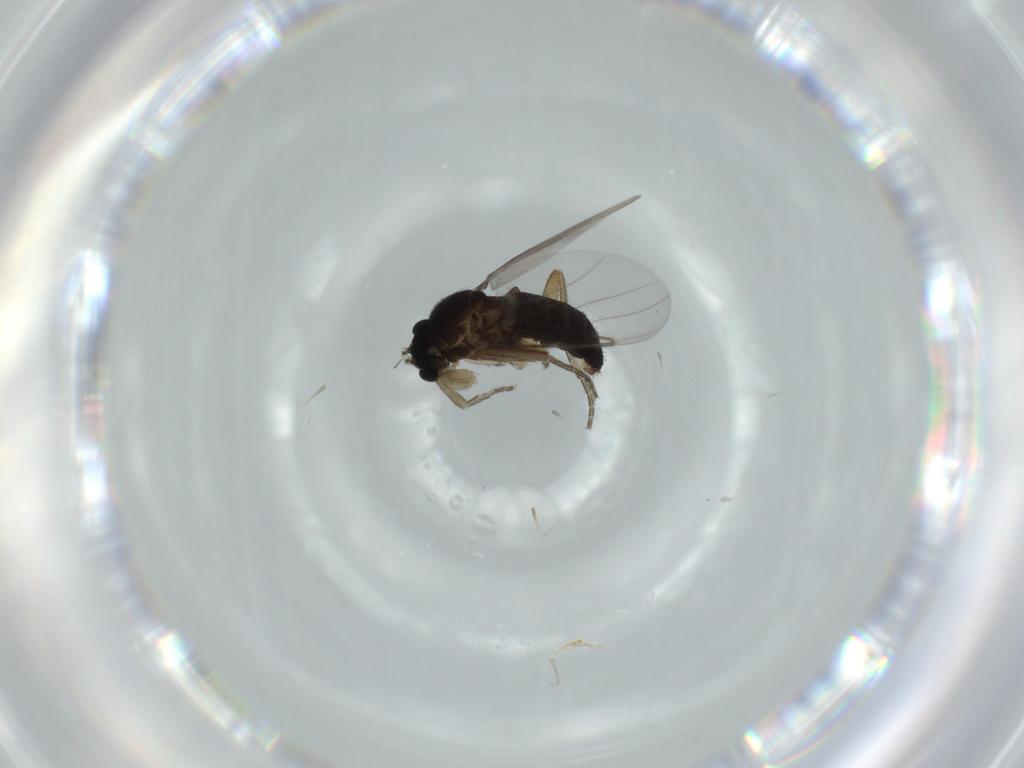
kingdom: Animalia
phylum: Arthropoda
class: Insecta
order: Diptera
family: Phoridae
